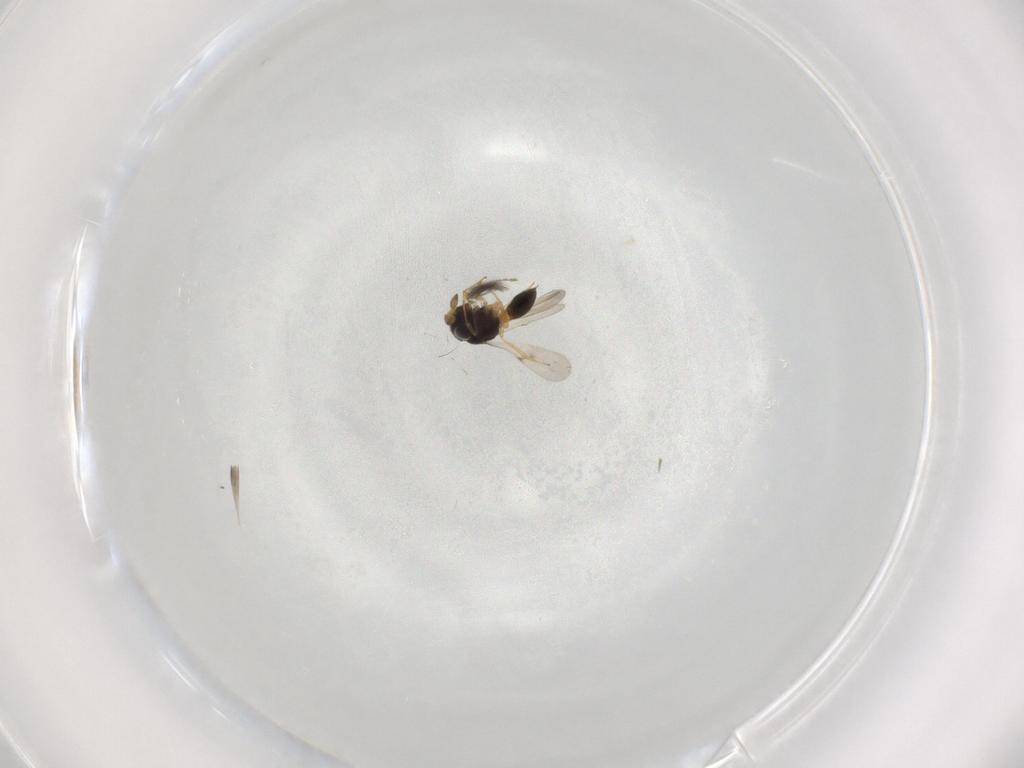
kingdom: Animalia
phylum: Arthropoda
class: Insecta
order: Hymenoptera
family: Scelionidae
